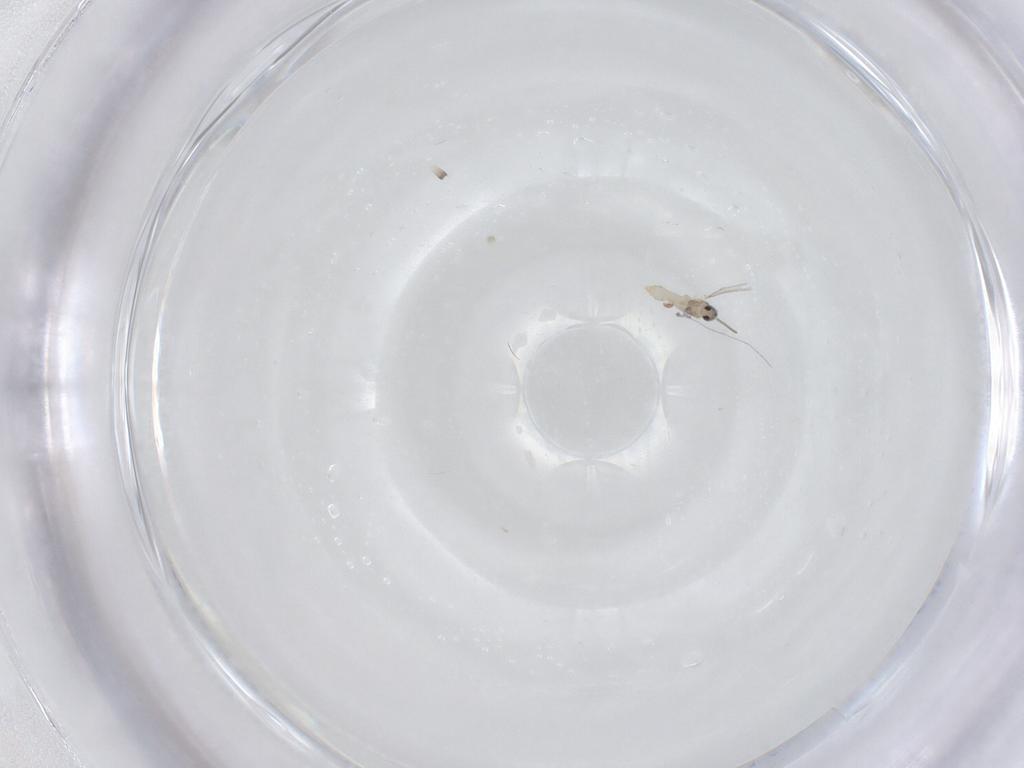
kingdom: Animalia
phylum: Arthropoda
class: Insecta
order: Diptera
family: Cecidomyiidae
